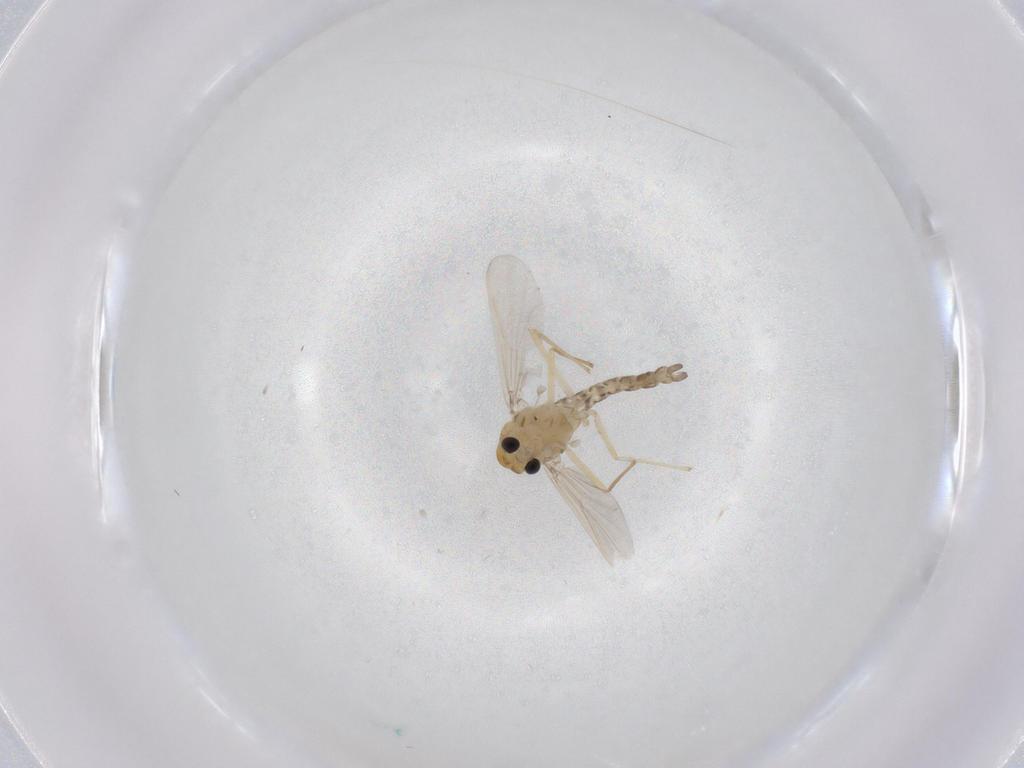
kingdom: Animalia
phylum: Arthropoda
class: Insecta
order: Diptera
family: Chironomidae
